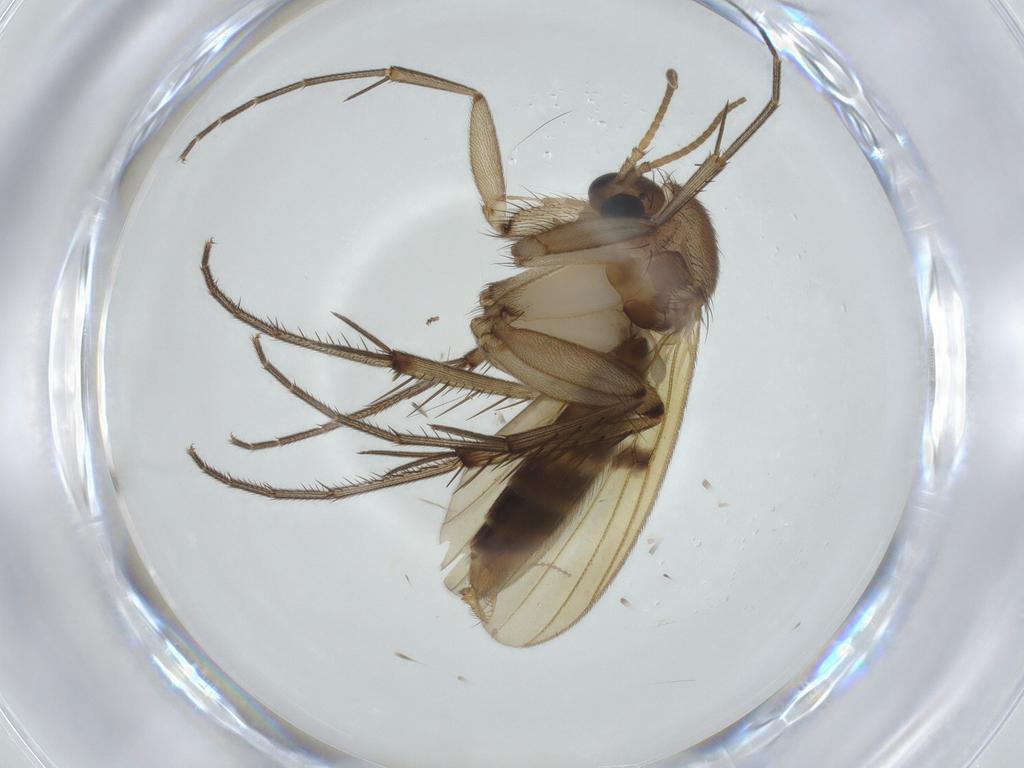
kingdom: Animalia
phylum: Arthropoda
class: Insecta
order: Diptera
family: Mycetophilidae
